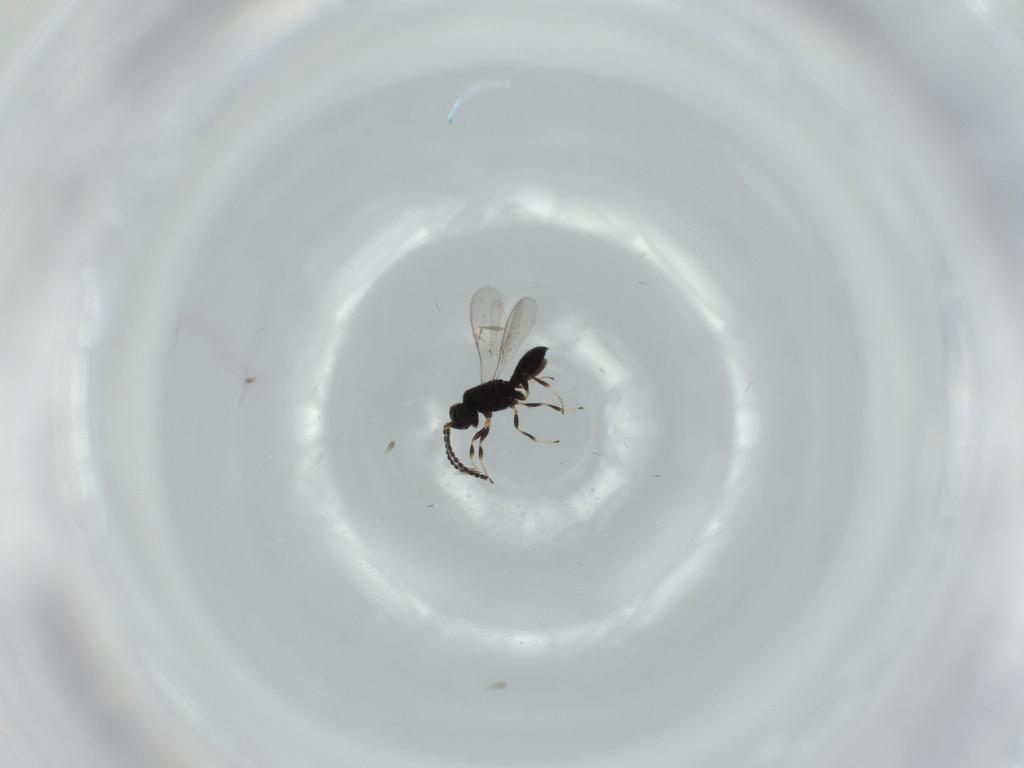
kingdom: Animalia
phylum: Arthropoda
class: Insecta
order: Hymenoptera
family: Scelionidae
